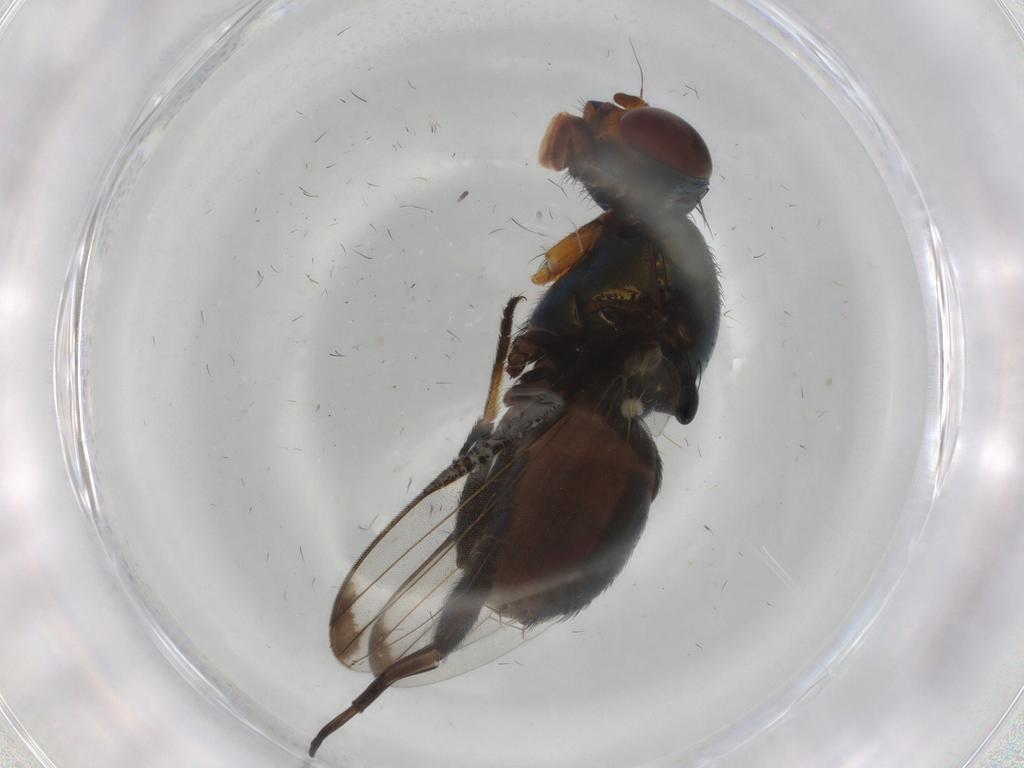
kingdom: Animalia
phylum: Arthropoda
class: Insecta
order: Diptera
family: Ulidiidae
